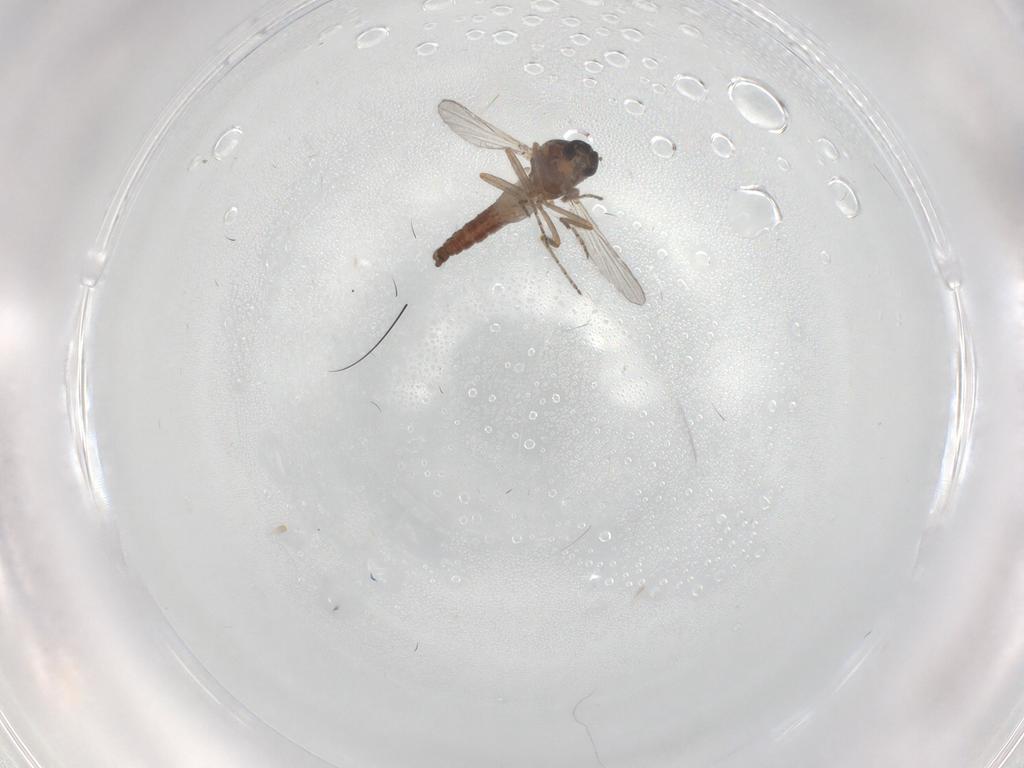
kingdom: Animalia
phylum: Arthropoda
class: Insecta
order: Diptera
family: Ceratopogonidae
